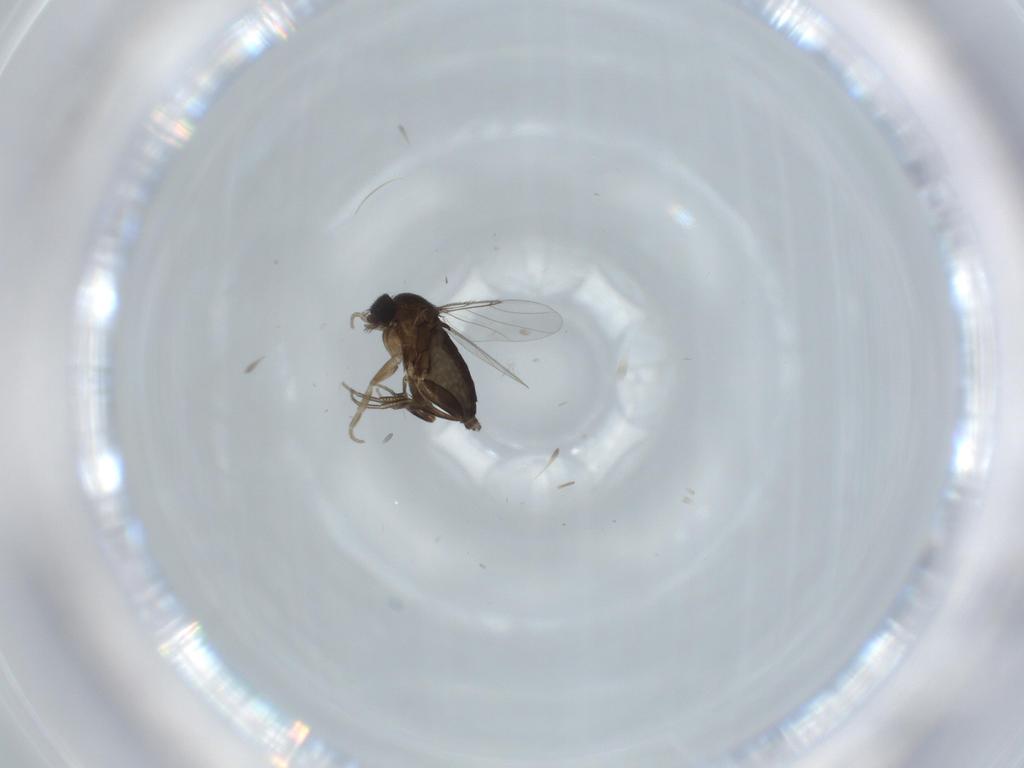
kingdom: Animalia
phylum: Arthropoda
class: Insecta
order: Diptera
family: Phoridae
